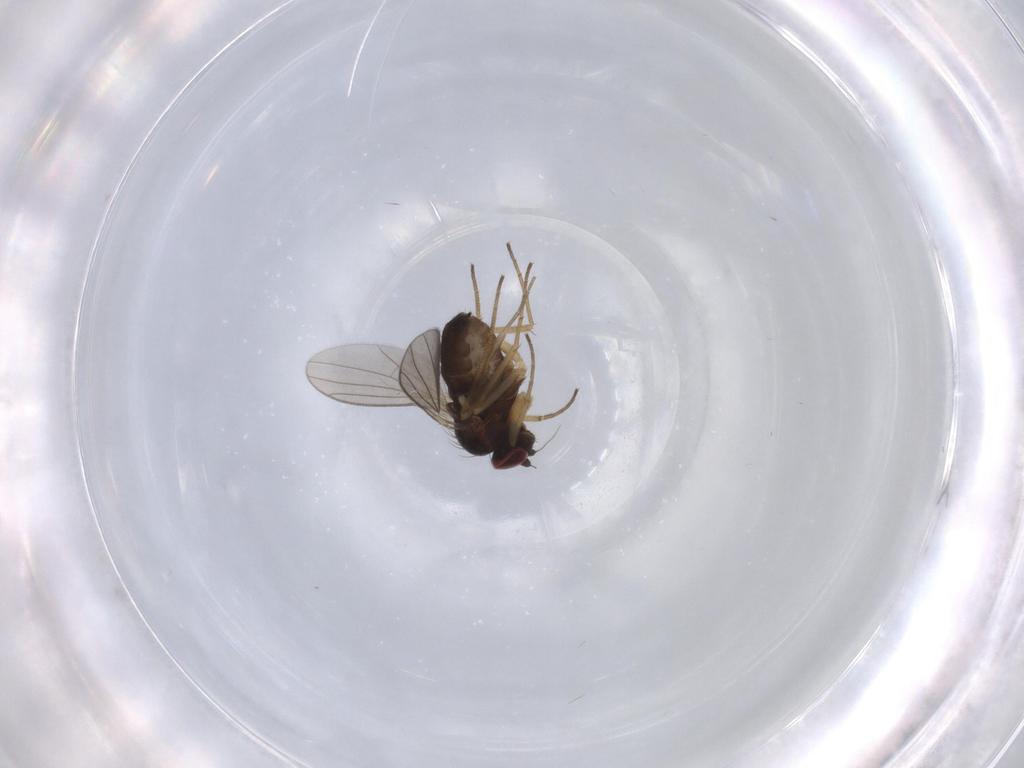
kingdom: Animalia
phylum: Arthropoda
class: Insecta
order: Diptera
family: Dolichopodidae
